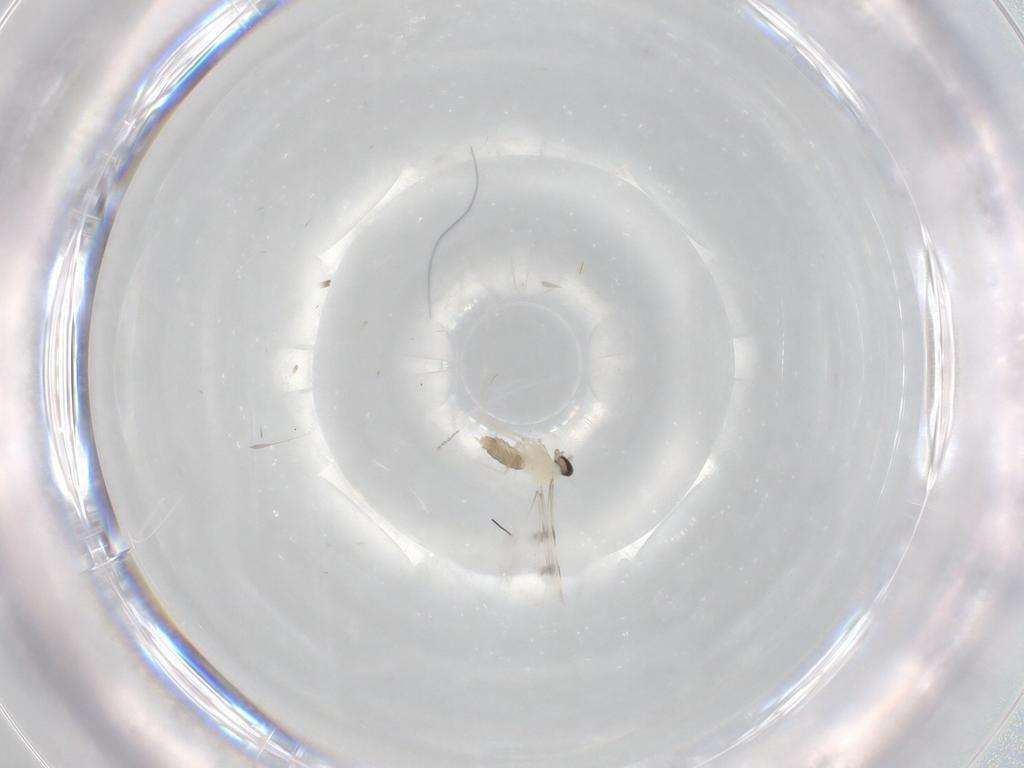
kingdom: Animalia
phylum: Arthropoda
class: Insecta
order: Diptera
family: Cecidomyiidae
